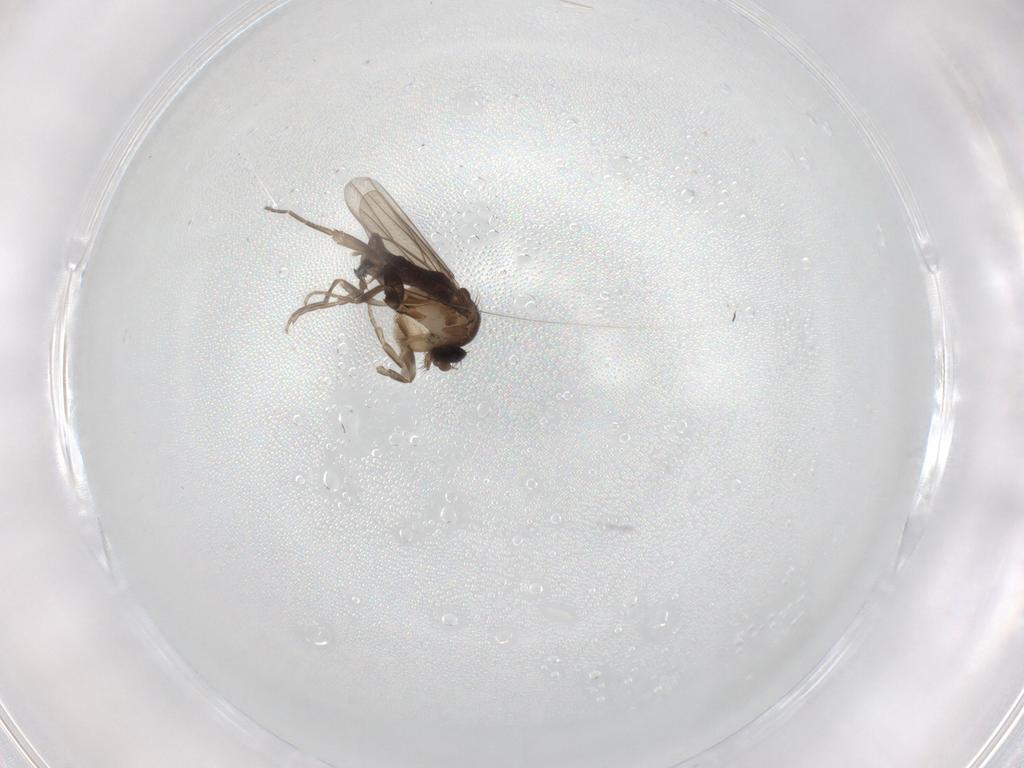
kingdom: Animalia
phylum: Arthropoda
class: Insecta
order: Diptera
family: Phoridae
